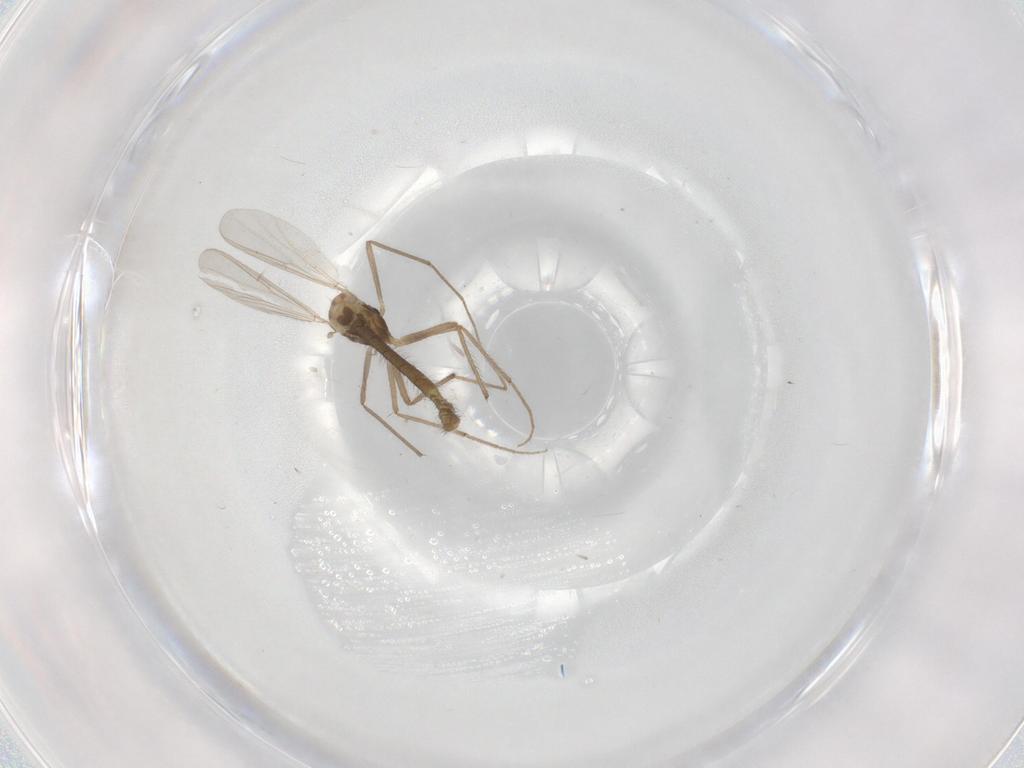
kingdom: Animalia
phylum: Arthropoda
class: Insecta
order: Diptera
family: Chironomidae
